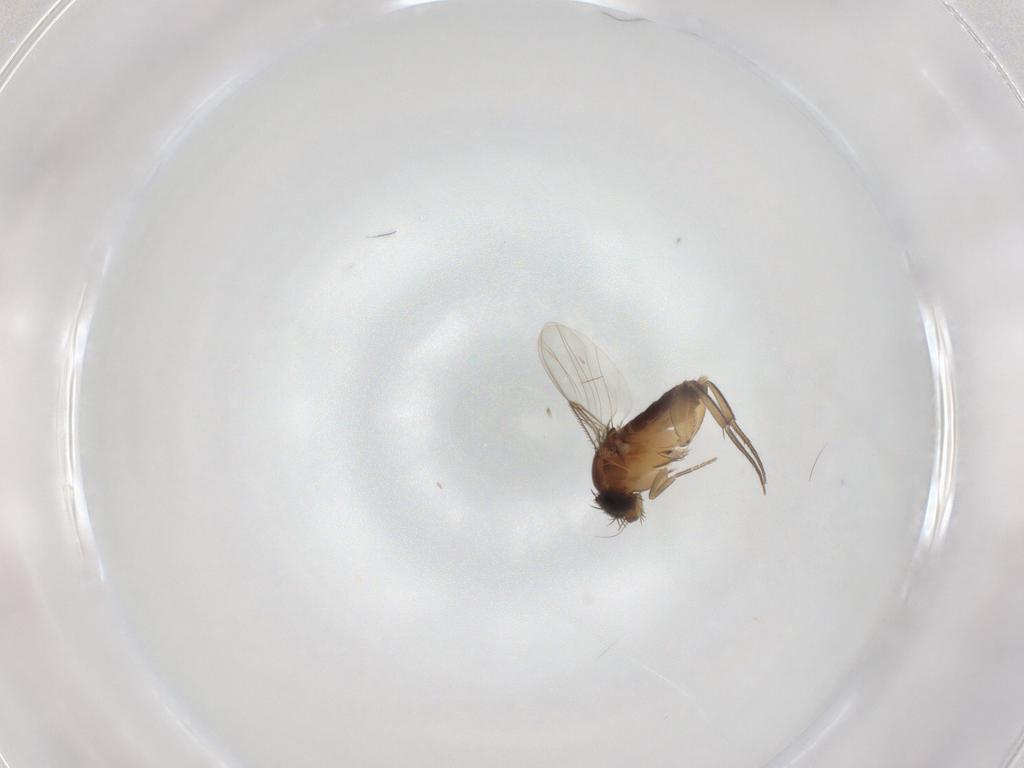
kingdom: Animalia
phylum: Arthropoda
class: Insecta
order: Diptera
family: Phoridae
